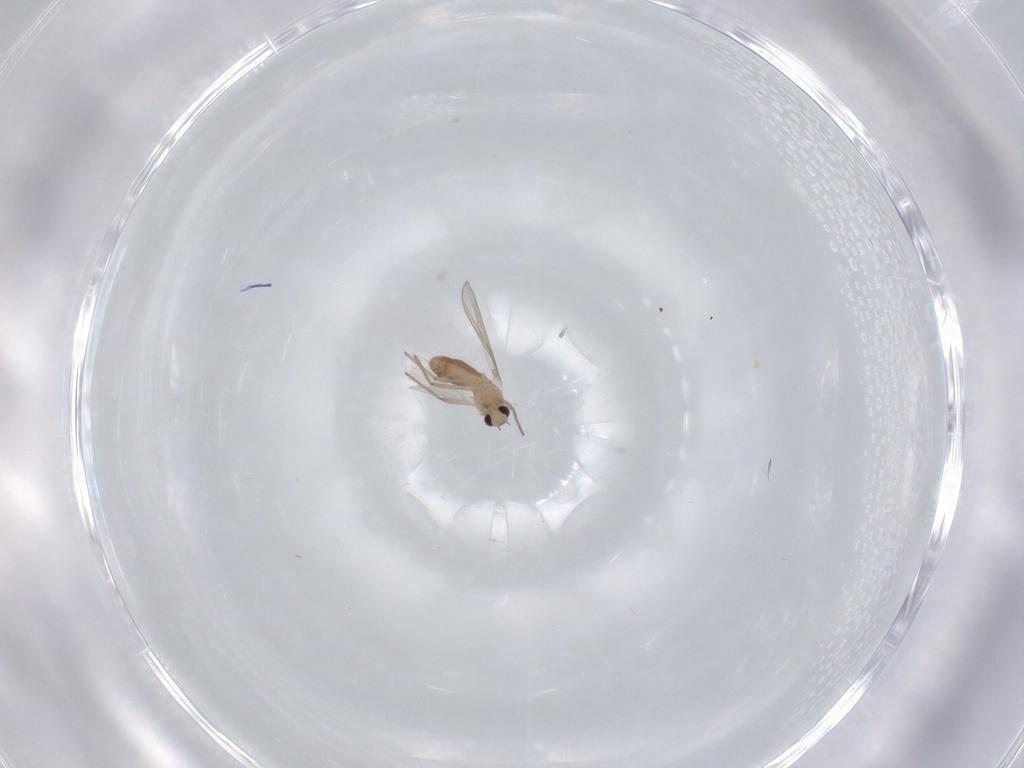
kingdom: Animalia
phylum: Arthropoda
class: Insecta
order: Diptera
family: Chironomidae
